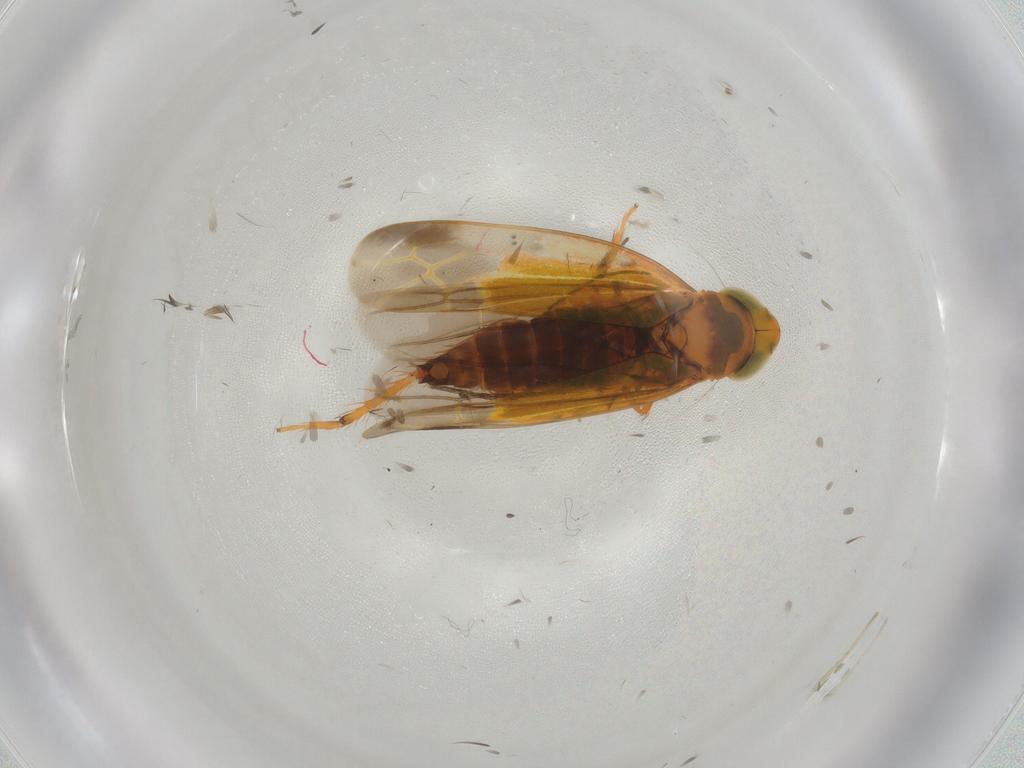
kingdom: Animalia
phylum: Arthropoda
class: Insecta
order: Hemiptera
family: Cicadellidae
